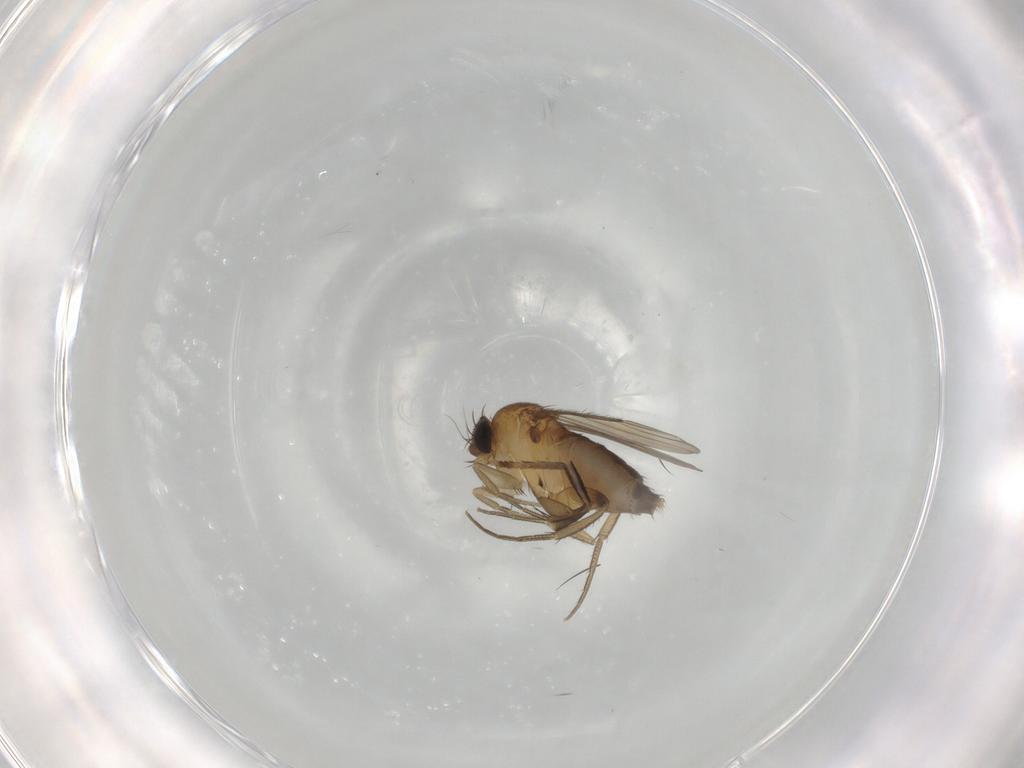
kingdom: Animalia
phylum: Arthropoda
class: Insecta
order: Diptera
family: Phoridae
